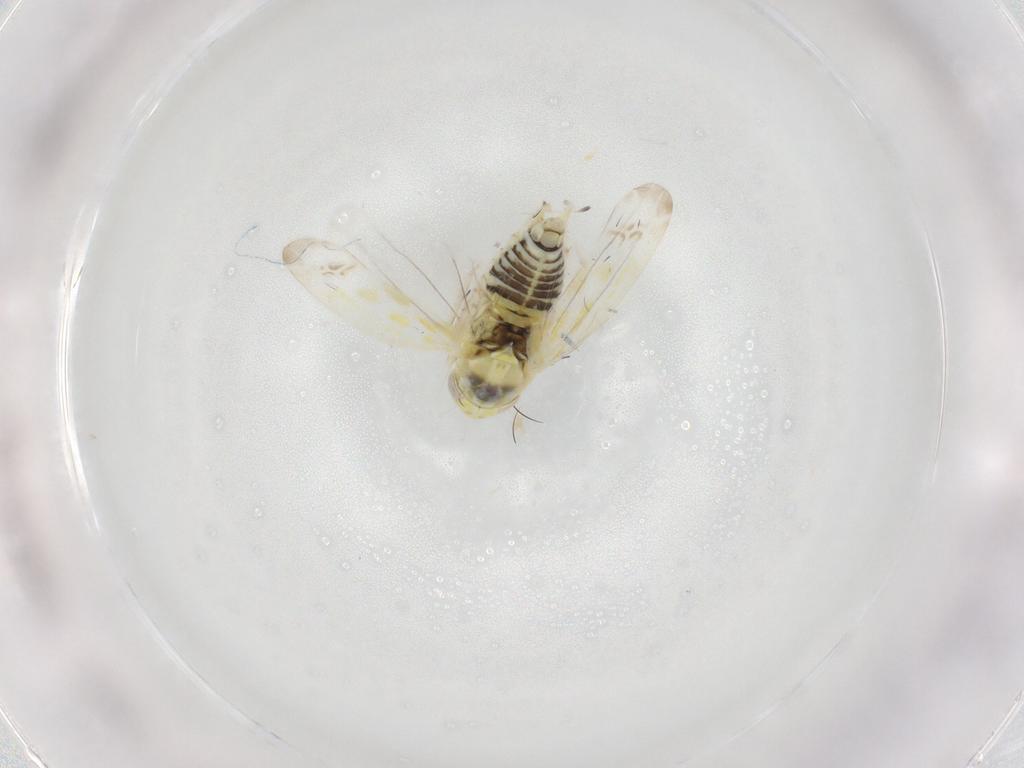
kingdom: Animalia
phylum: Arthropoda
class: Insecta
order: Hemiptera
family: Cicadellidae
